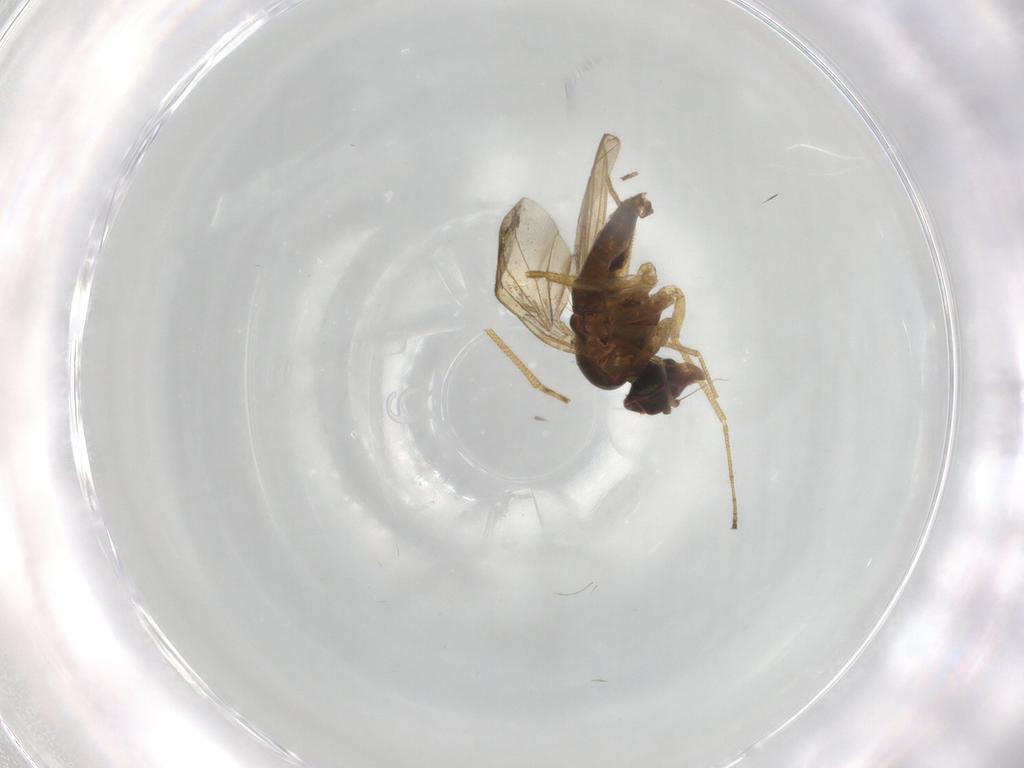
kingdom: Animalia
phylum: Arthropoda
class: Insecta
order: Diptera
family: Dolichopodidae
